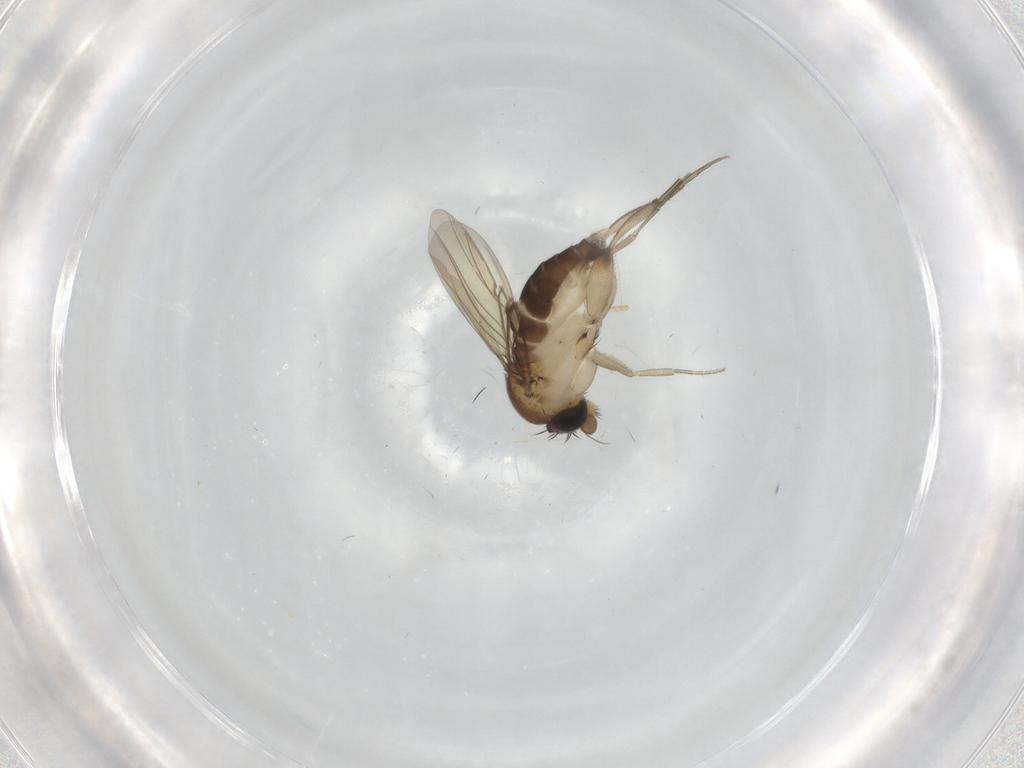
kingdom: Animalia
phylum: Arthropoda
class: Insecta
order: Diptera
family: Phoridae
